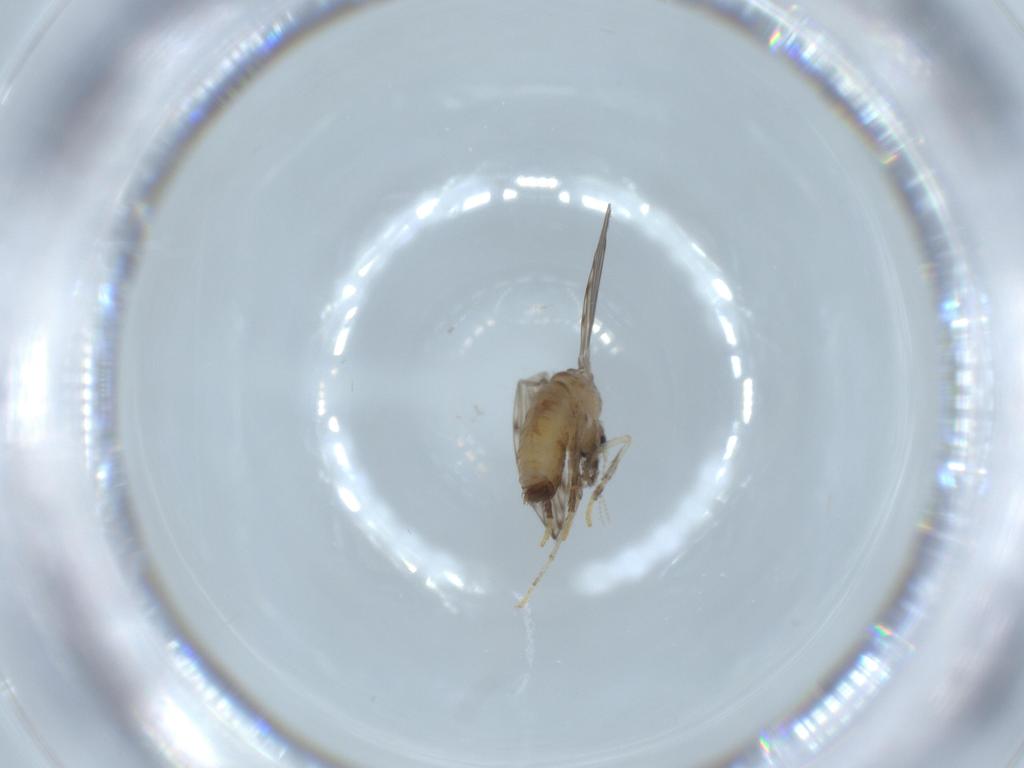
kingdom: Animalia
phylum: Arthropoda
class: Insecta
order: Diptera
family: Psychodidae
